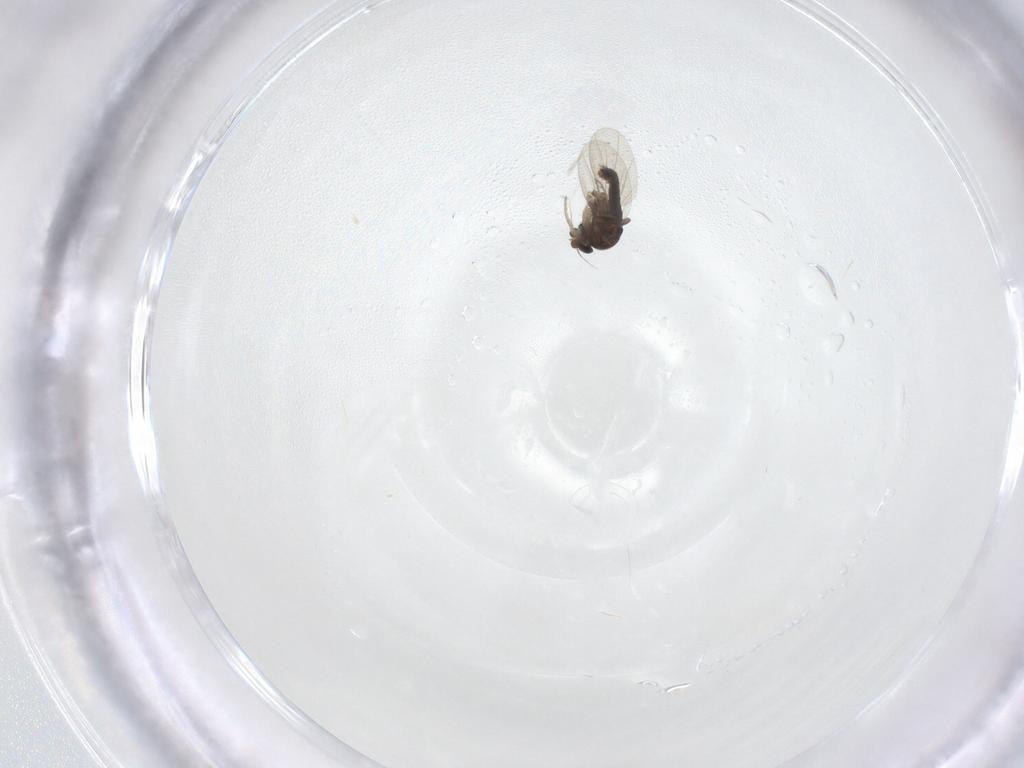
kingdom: Animalia
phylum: Arthropoda
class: Insecta
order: Diptera
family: Phoridae
